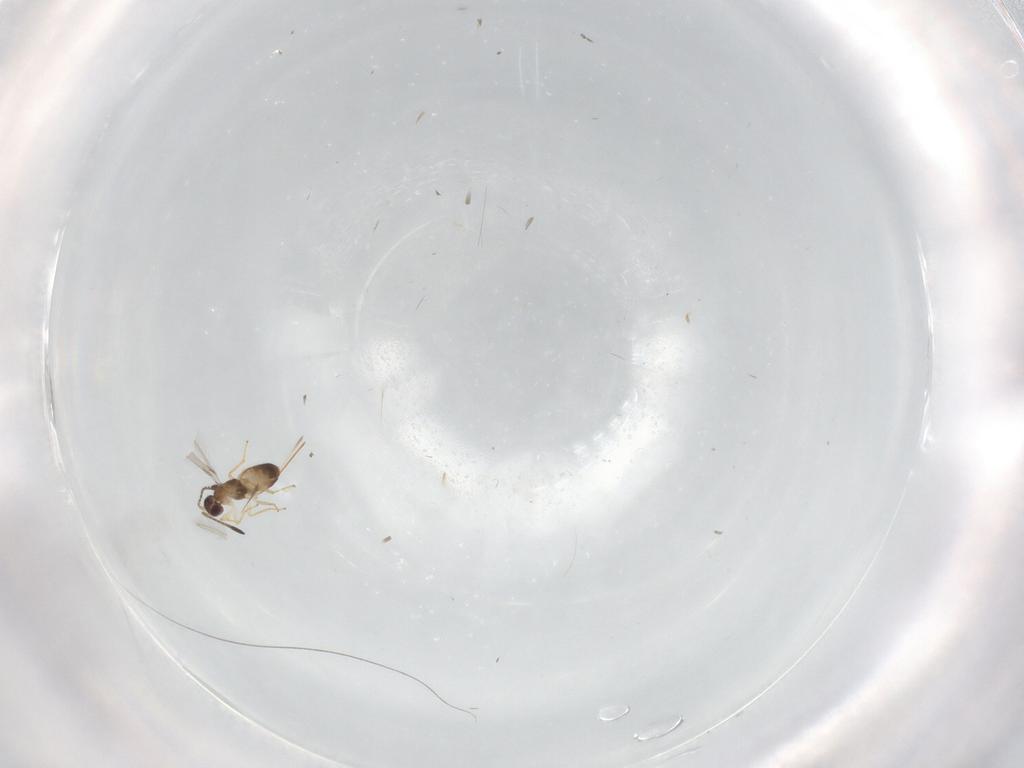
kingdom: Animalia
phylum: Arthropoda
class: Insecta
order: Hymenoptera
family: Mymaridae
